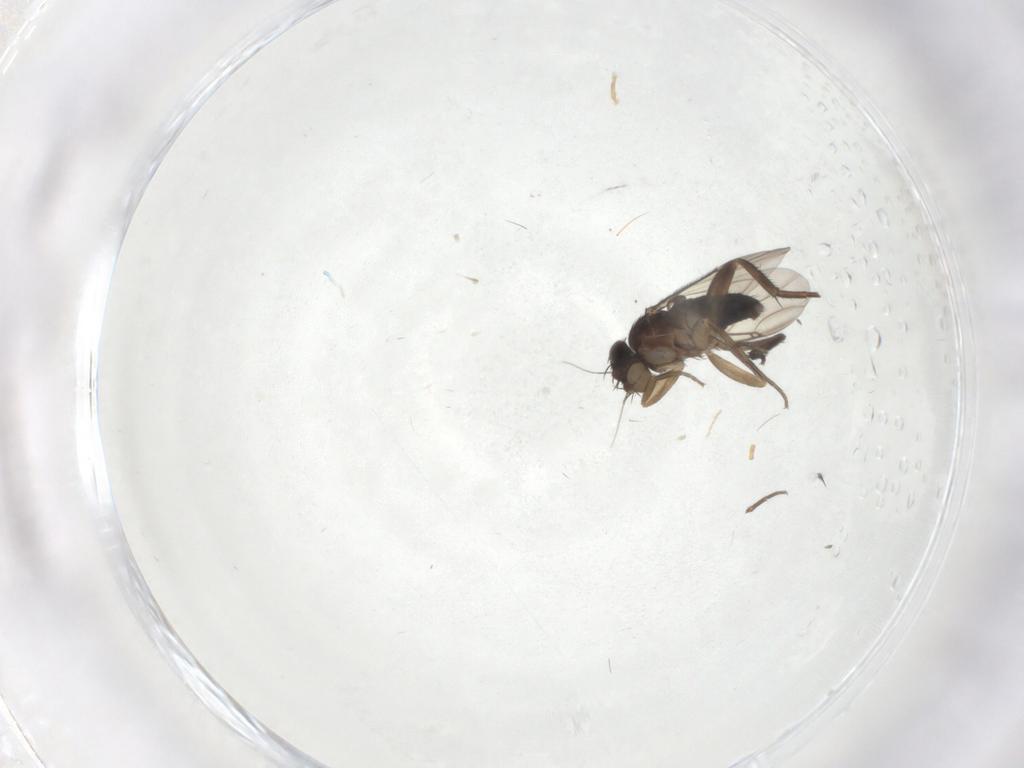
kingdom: Animalia
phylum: Arthropoda
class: Insecta
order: Diptera
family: Phoridae
